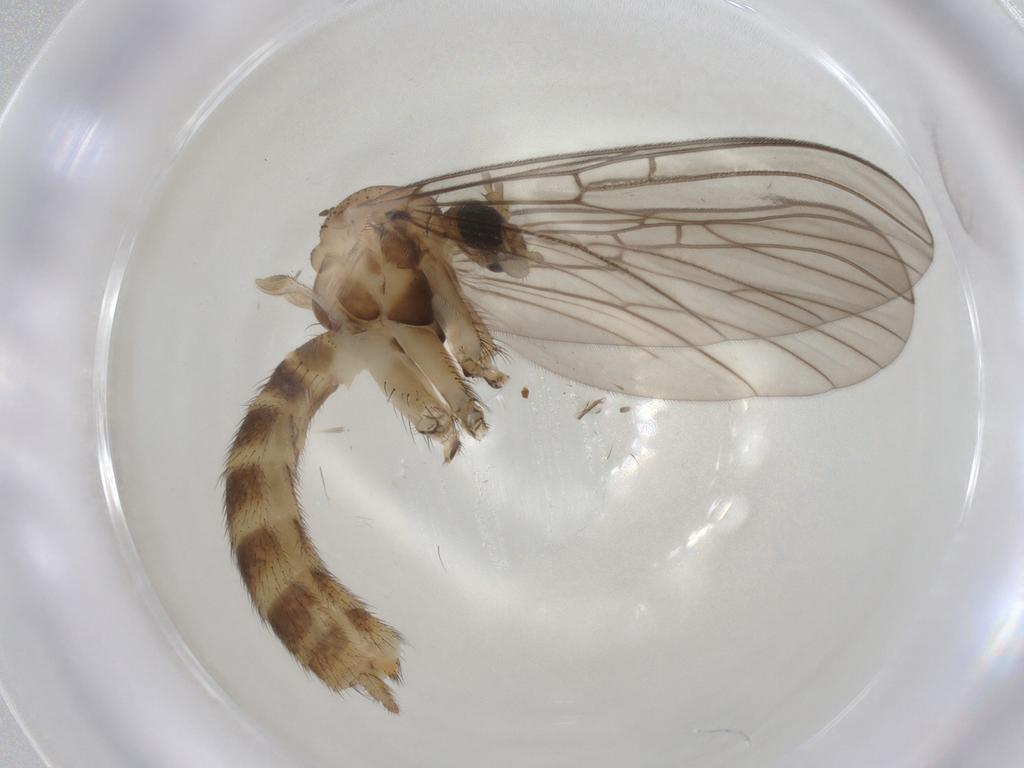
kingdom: Animalia
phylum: Arthropoda
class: Insecta
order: Diptera
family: Mycetophilidae
